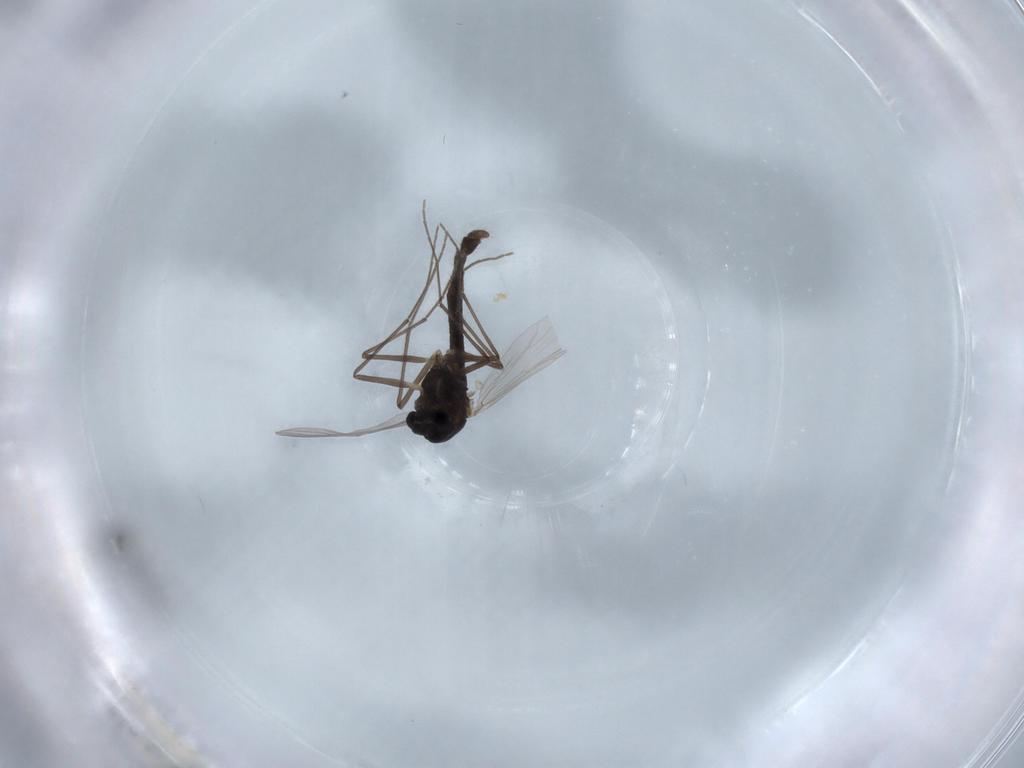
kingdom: Animalia
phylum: Arthropoda
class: Insecta
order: Diptera
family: Chironomidae
